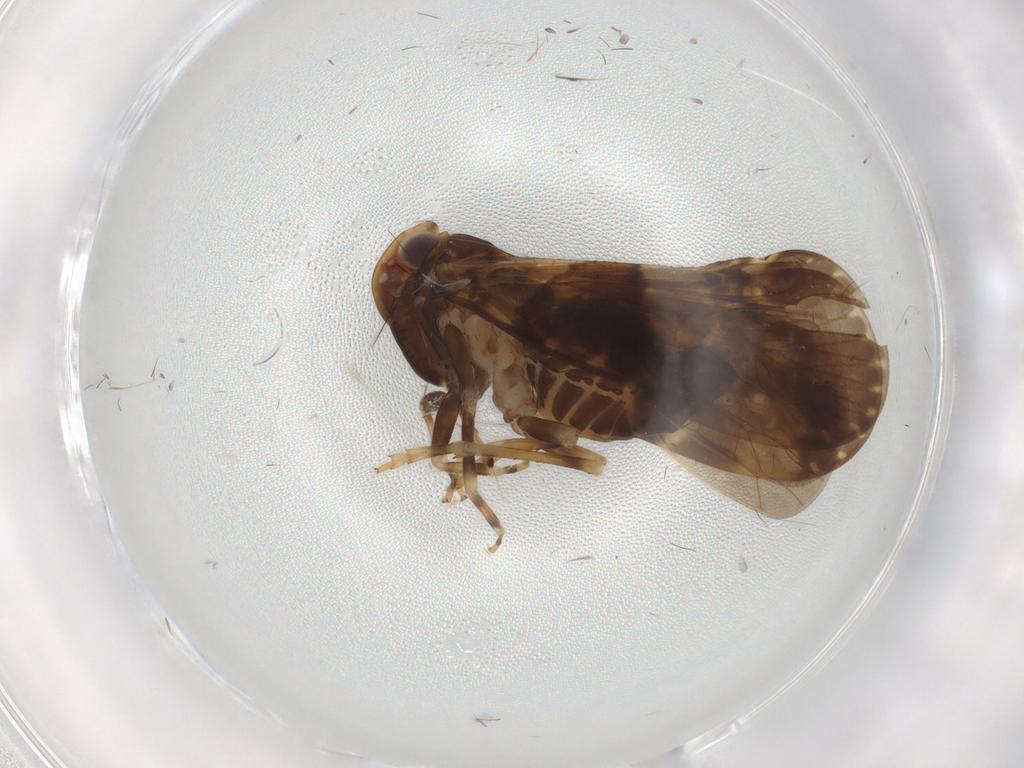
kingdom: Animalia
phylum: Arthropoda
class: Insecta
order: Hemiptera
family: Cixiidae
